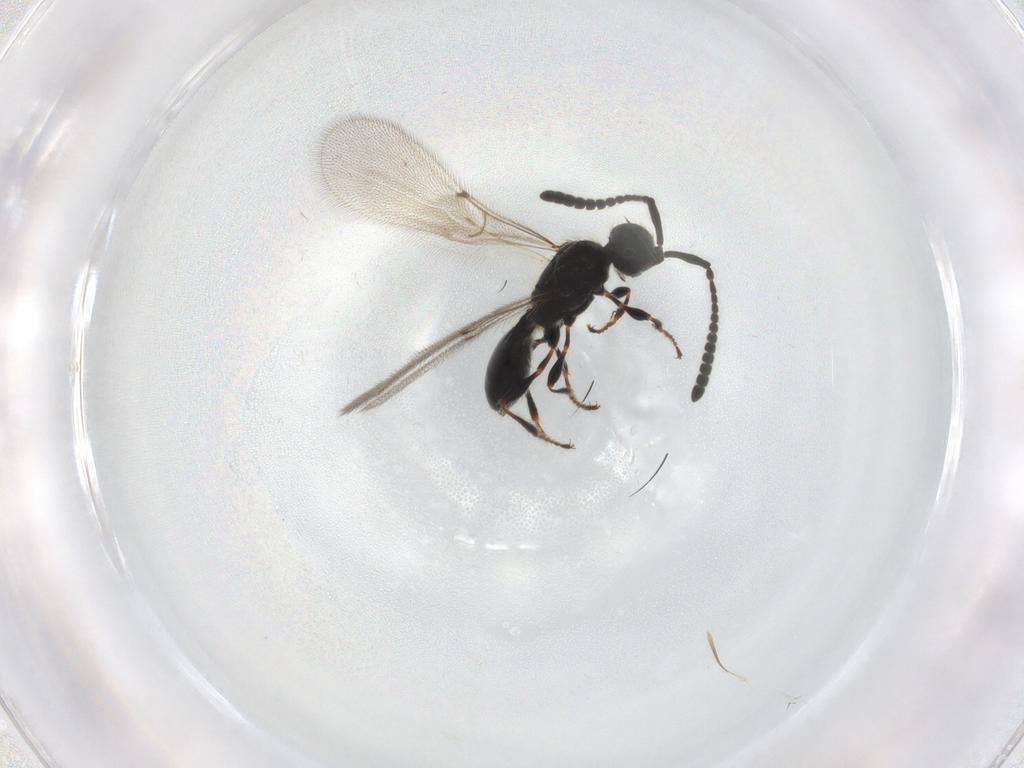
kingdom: Animalia
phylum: Arthropoda
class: Insecta
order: Hymenoptera
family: Diapriidae
